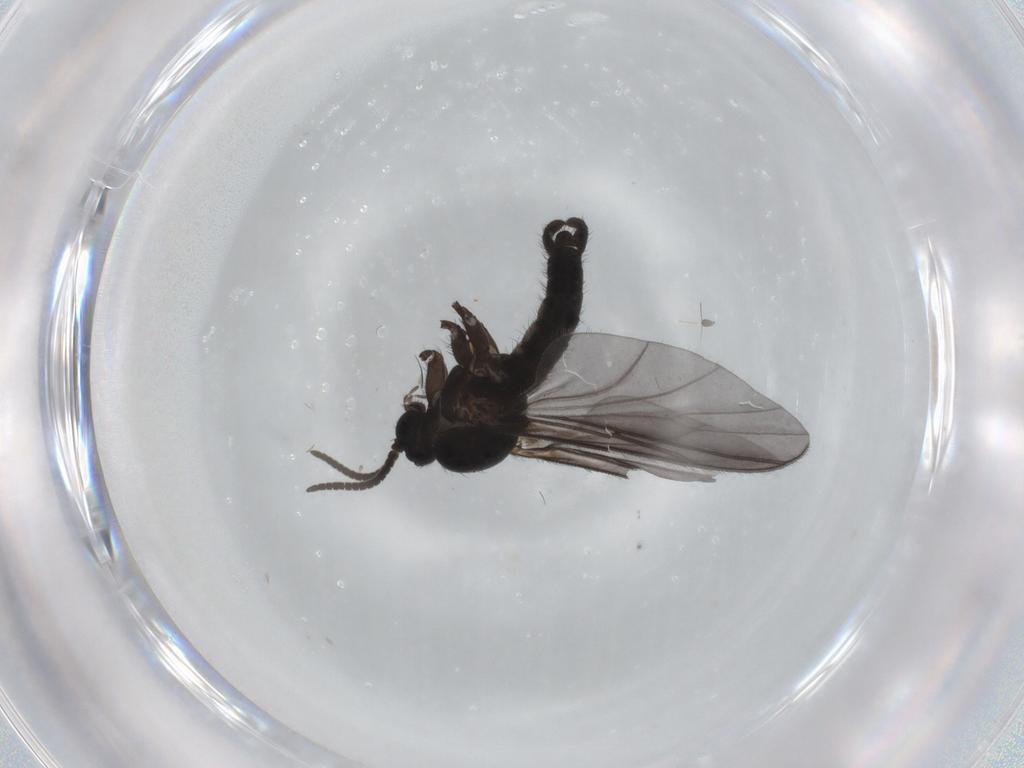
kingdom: Animalia
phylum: Arthropoda
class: Insecta
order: Diptera
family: Sciaridae
